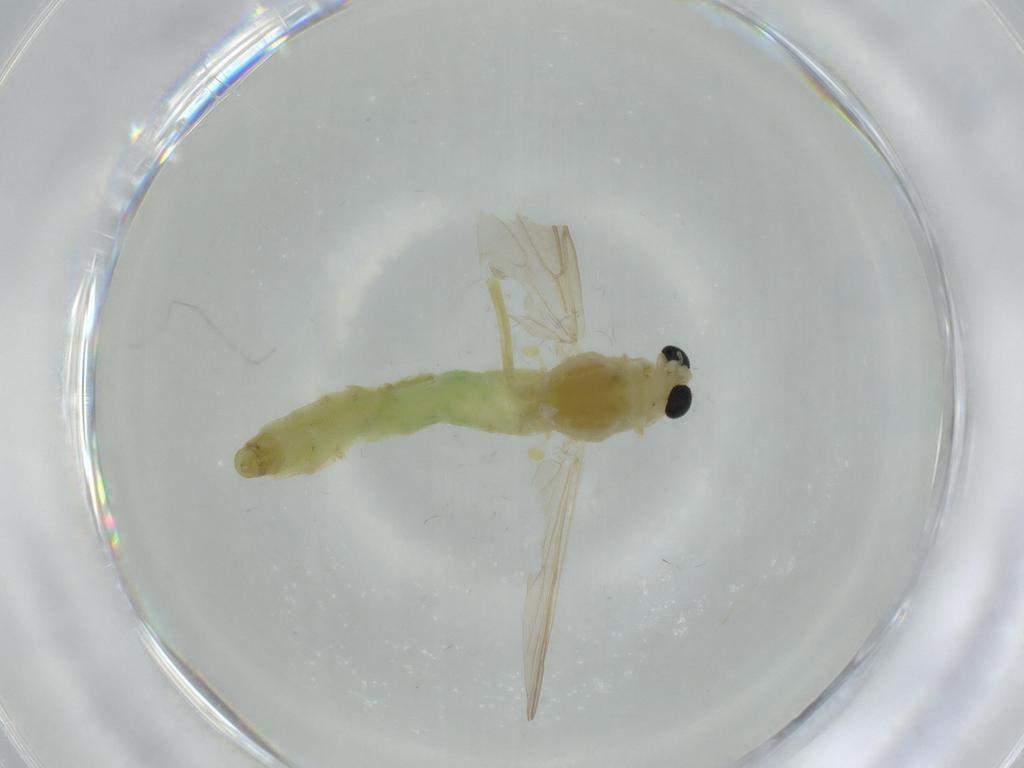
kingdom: Animalia
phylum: Arthropoda
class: Insecta
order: Diptera
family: Chironomidae
